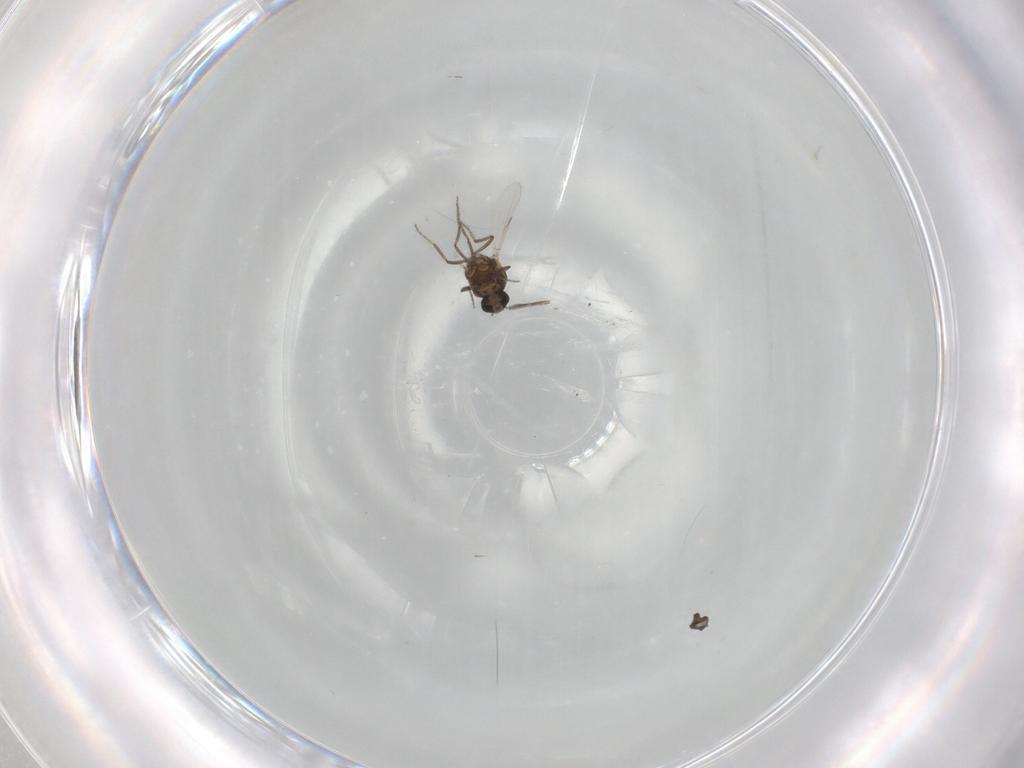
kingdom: Animalia
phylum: Arthropoda
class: Insecta
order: Diptera
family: Ceratopogonidae
